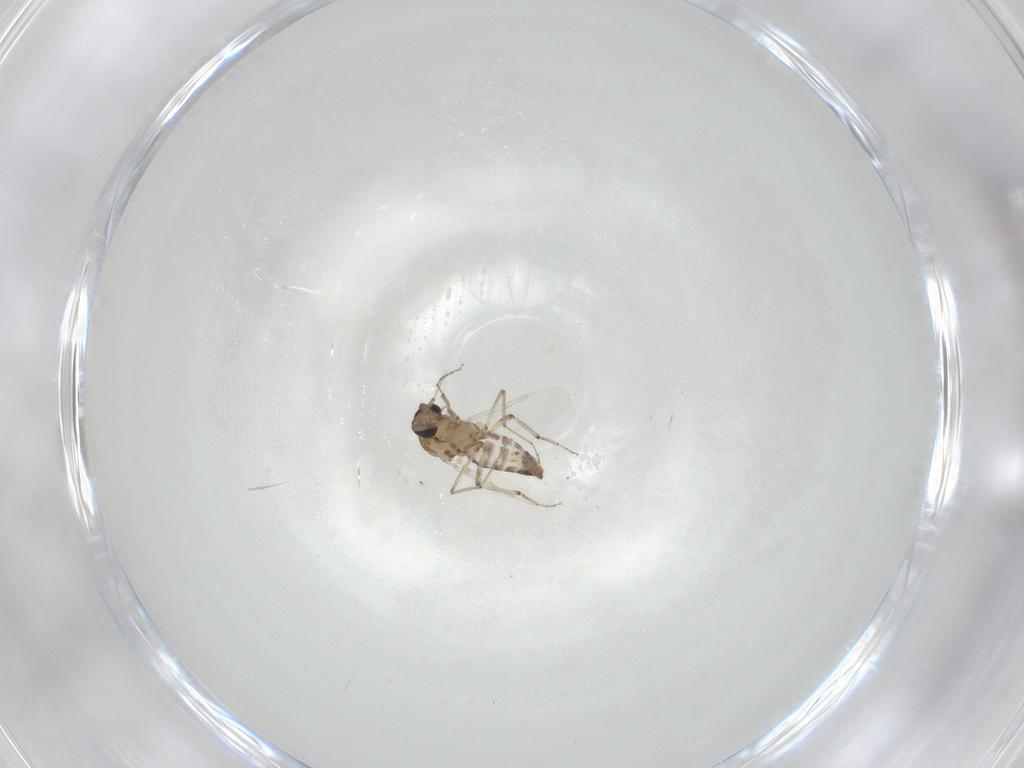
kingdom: Animalia
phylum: Arthropoda
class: Insecta
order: Diptera
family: Ceratopogonidae
